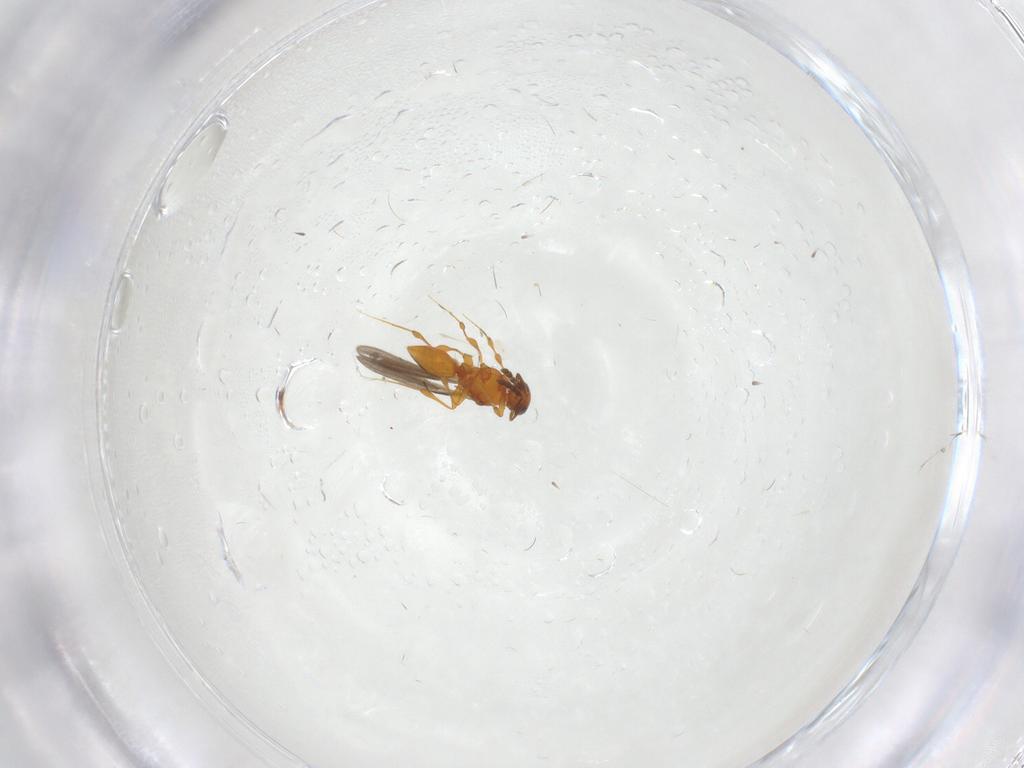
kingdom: Animalia
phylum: Arthropoda
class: Insecta
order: Hymenoptera
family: Platygastridae
